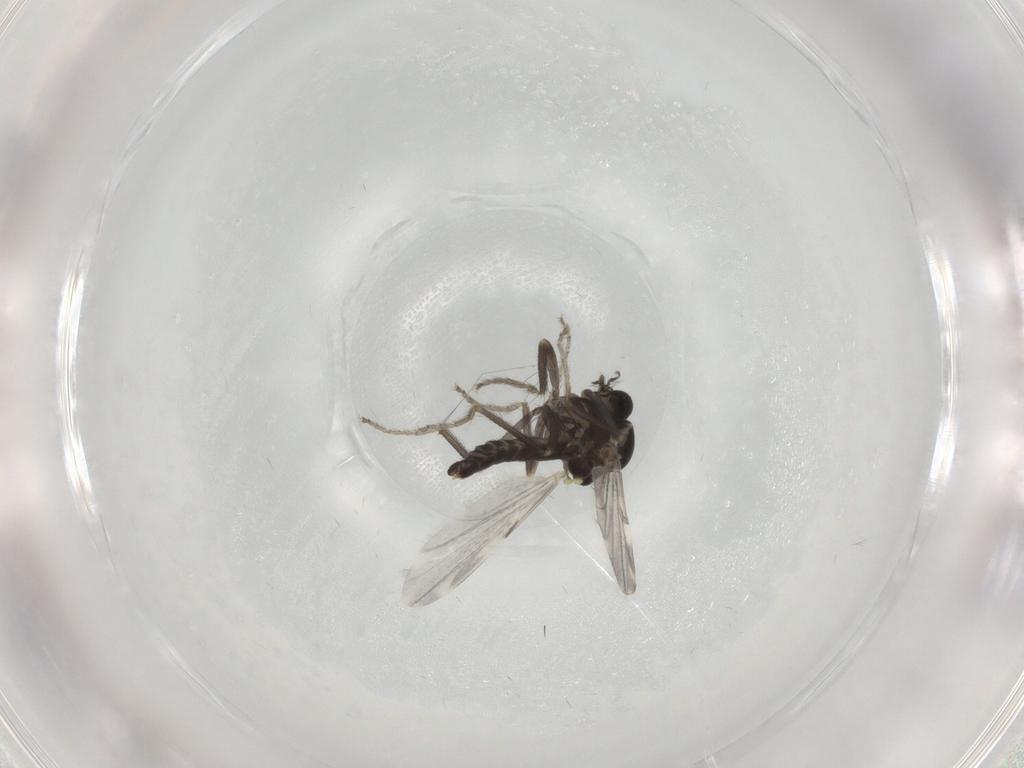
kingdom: Animalia
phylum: Arthropoda
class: Insecta
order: Diptera
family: Ceratopogonidae
